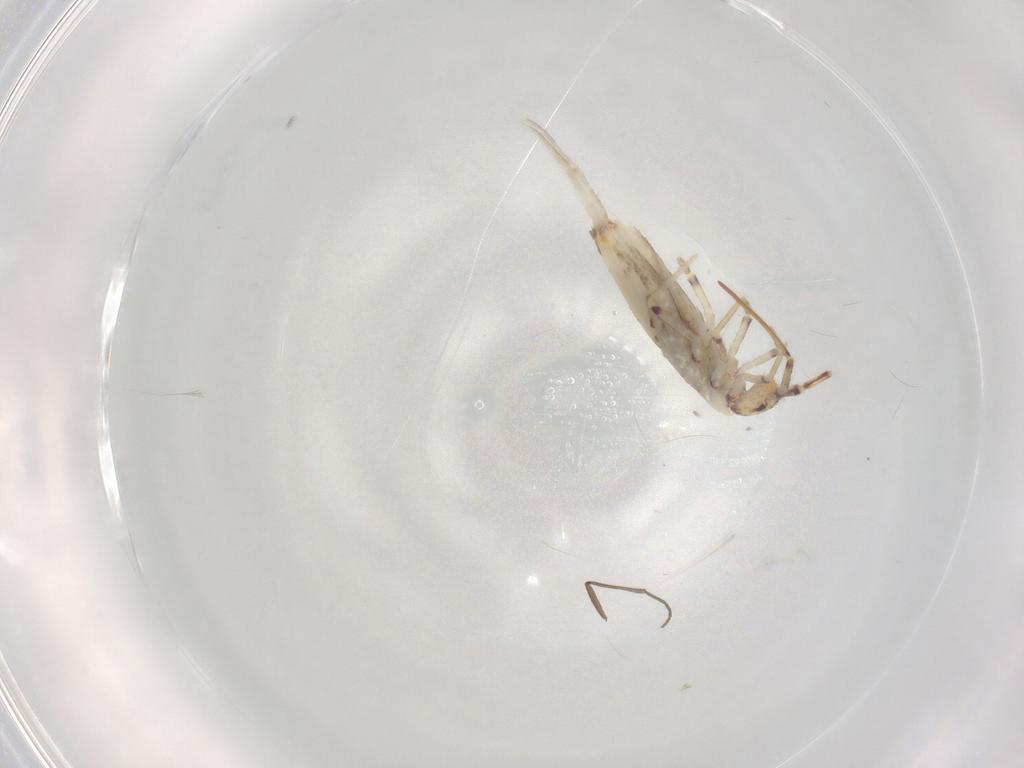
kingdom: Animalia
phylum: Arthropoda
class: Collembola
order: Entomobryomorpha
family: Entomobryidae
